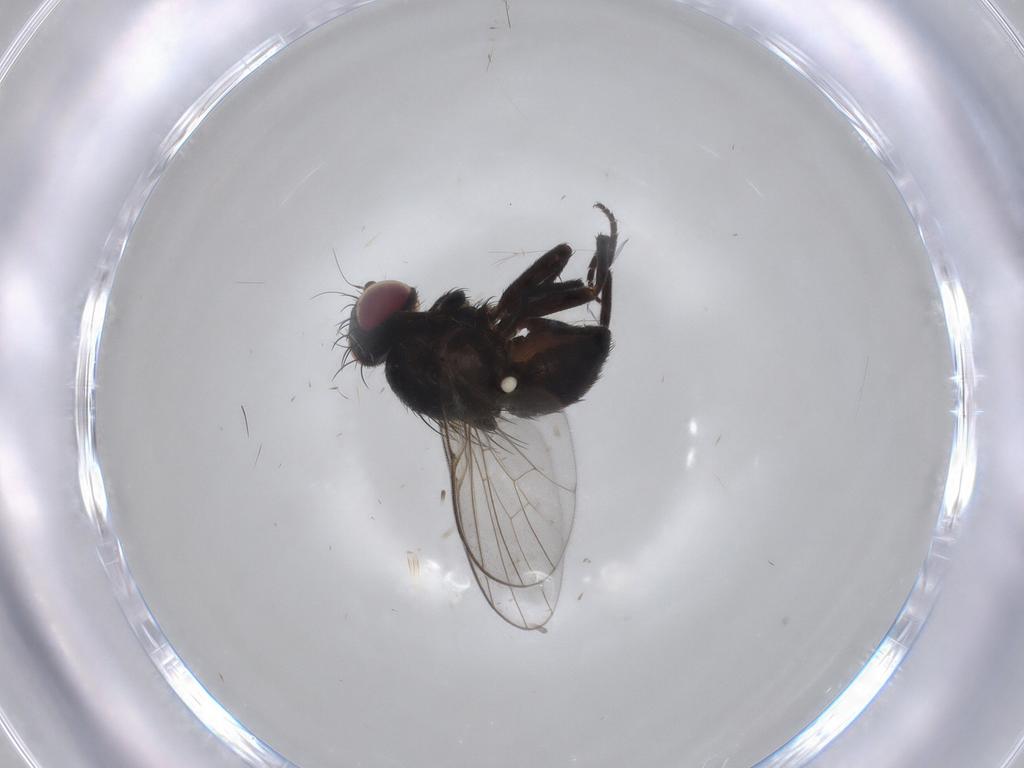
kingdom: Animalia
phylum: Arthropoda
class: Insecta
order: Diptera
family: Agromyzidae
